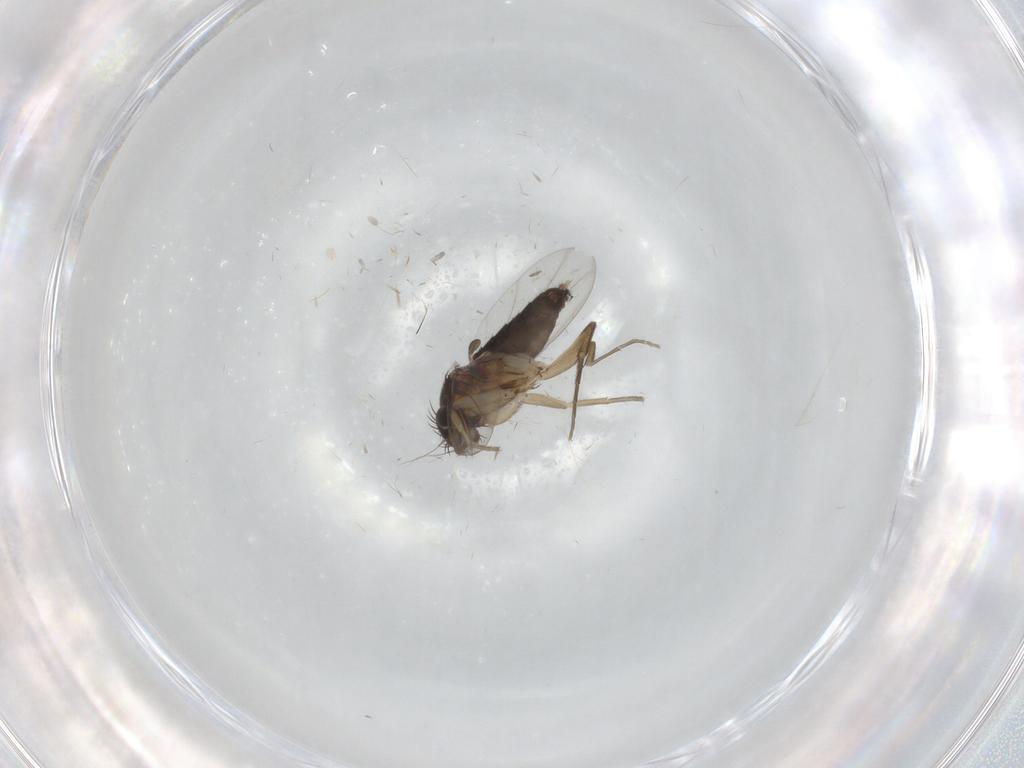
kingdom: Animalia
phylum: Arthropoda
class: Insecta
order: Diptera
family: Phoridae
